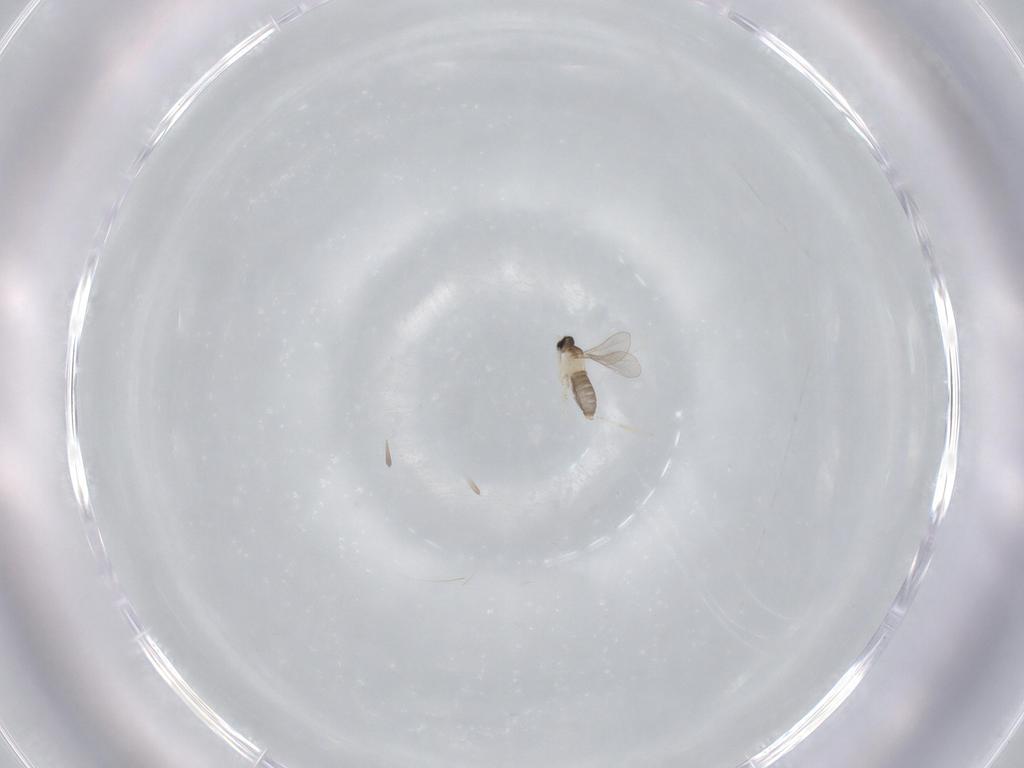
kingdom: Animalia
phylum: Arthropoda
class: Insecta
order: Diptera
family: Cecidomyiidae
